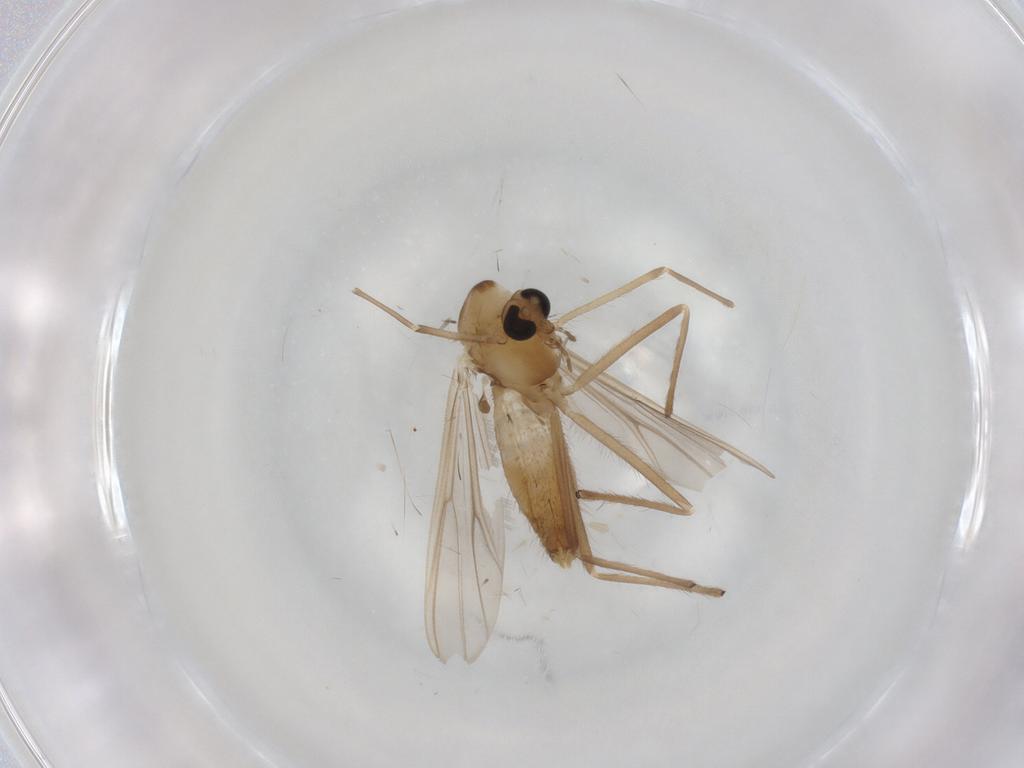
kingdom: Animalia
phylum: Arthropoda
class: Insecta
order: Diptera
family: Chironomidae
